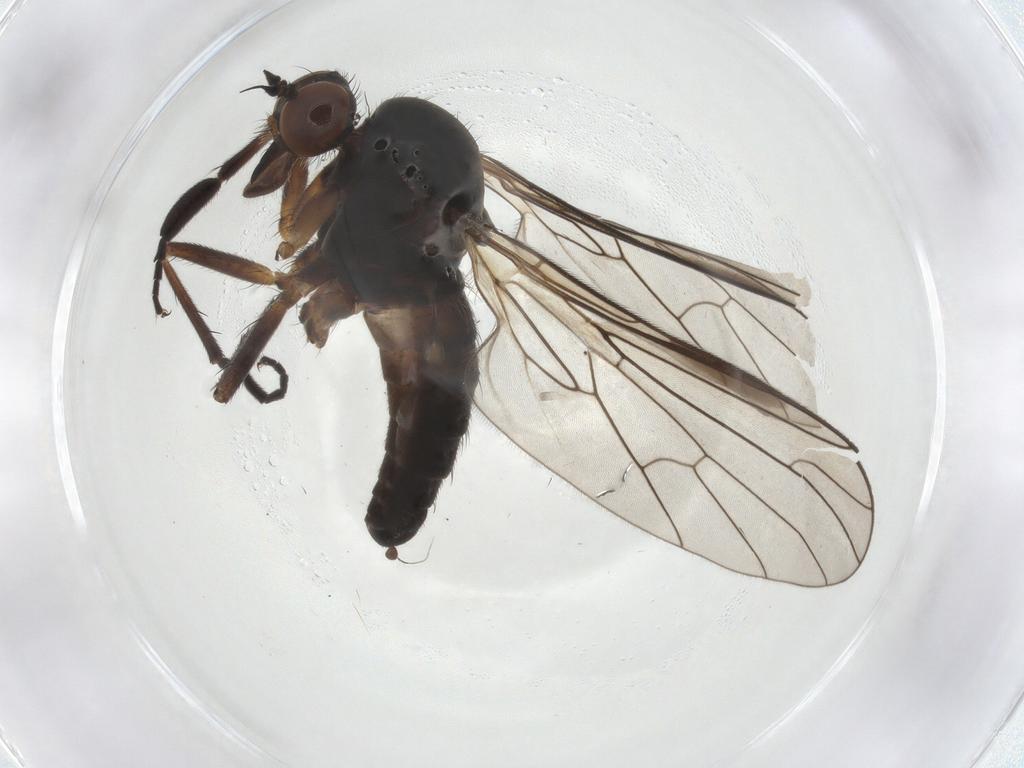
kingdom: Animalia
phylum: Arthropoda
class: Insecta
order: Diptera
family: Empididae
